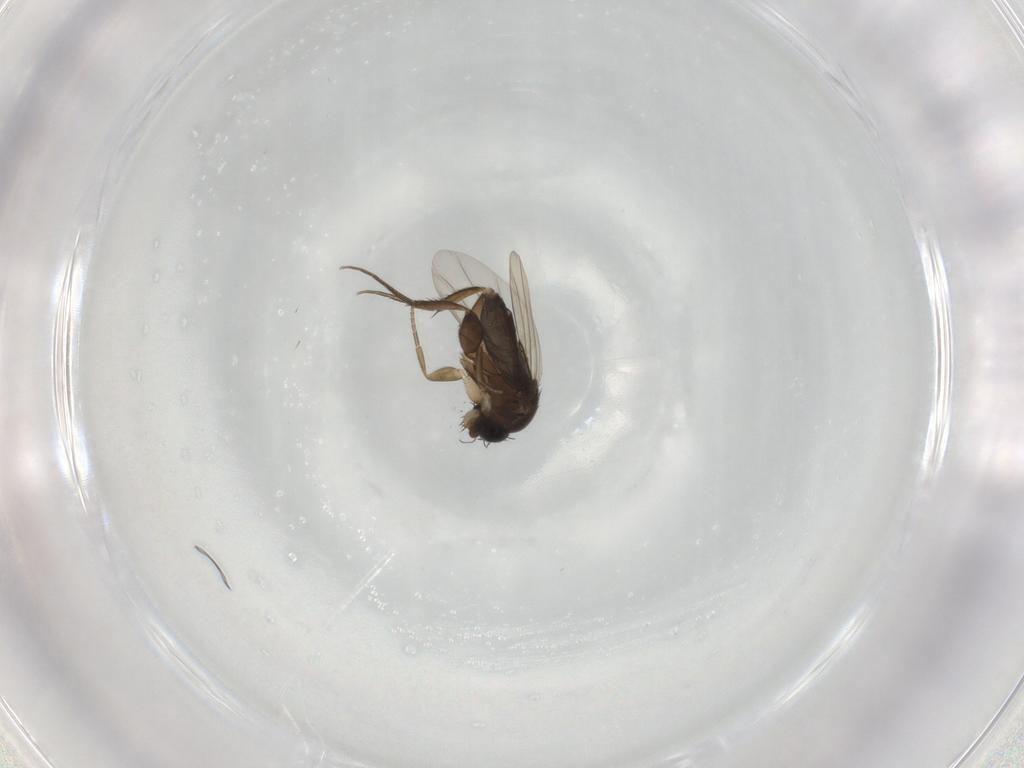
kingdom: Animalia
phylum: Arthropoda
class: Insecta
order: Diptera
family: Phoridae
